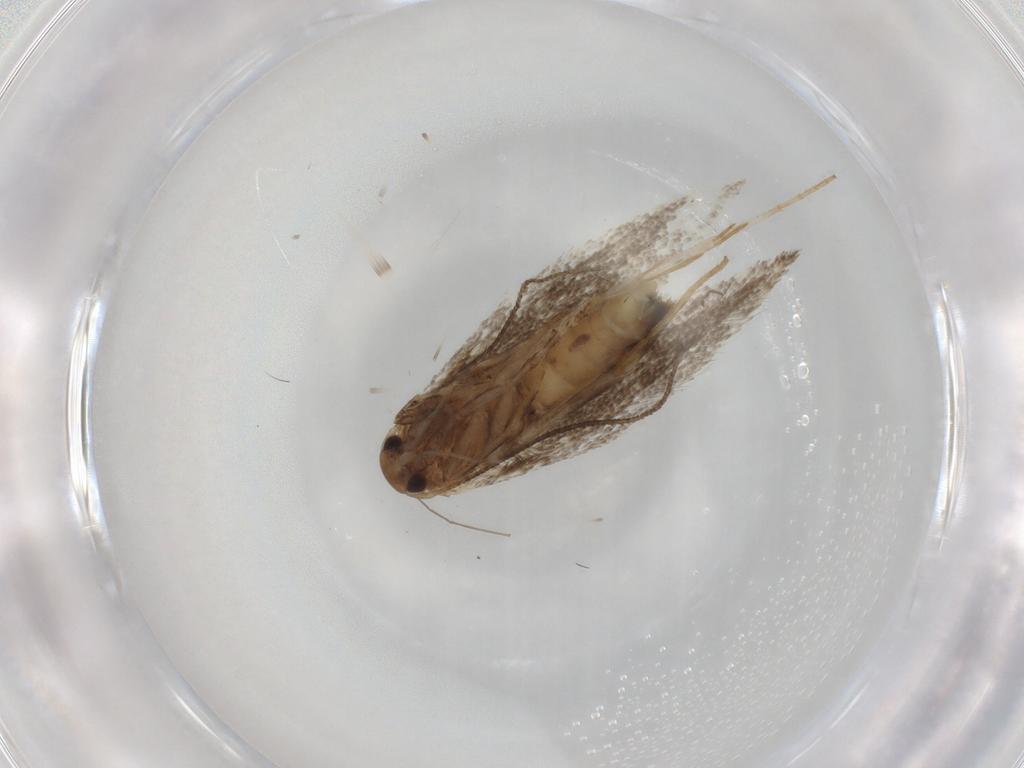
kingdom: Animalia
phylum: Arthropoda
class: Insecta
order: Lepidoptera
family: Elachistidae
